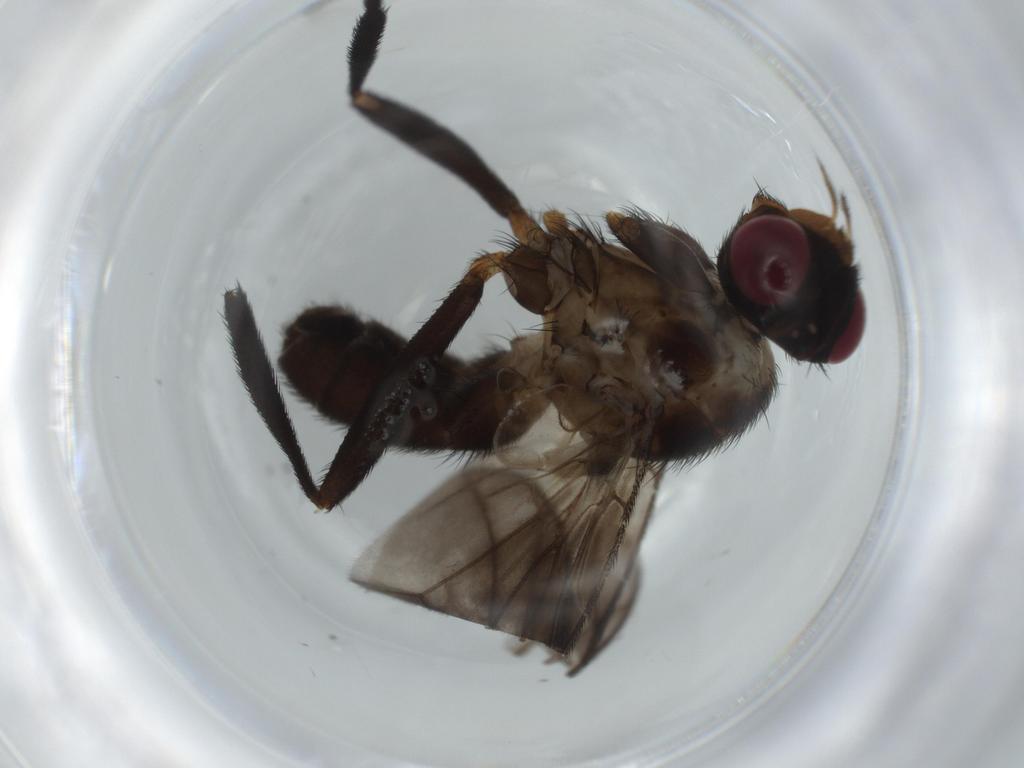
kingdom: Animalia
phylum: Arthropoda
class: Insecta
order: Diptera
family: Sciaridae
